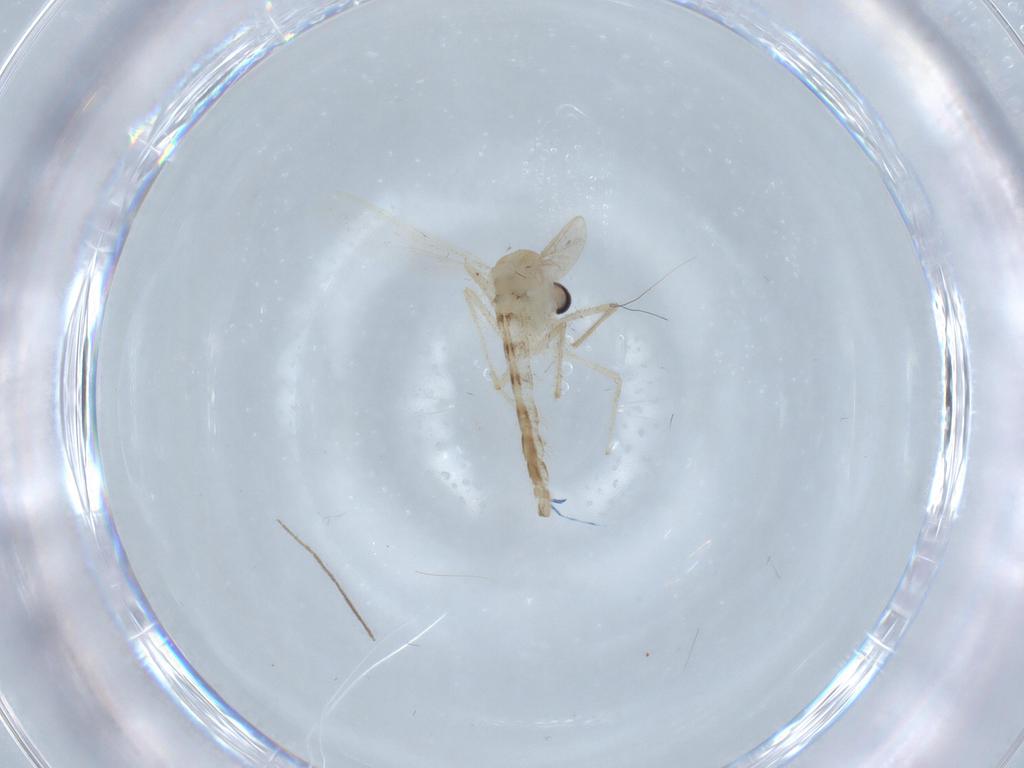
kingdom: Animalia
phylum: Arthropoda
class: Insecta
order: Diptera
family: Chironomidae
